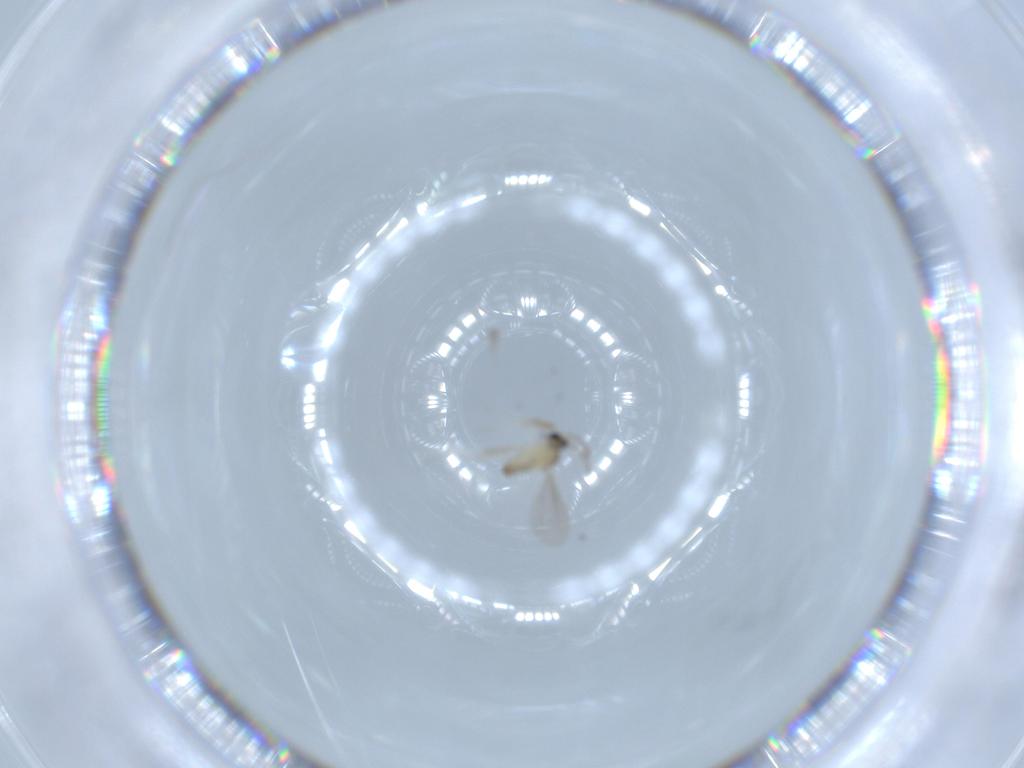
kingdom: Animalia
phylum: Arthropoda
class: Insecta
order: Diptera
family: Cecidomyiidae
